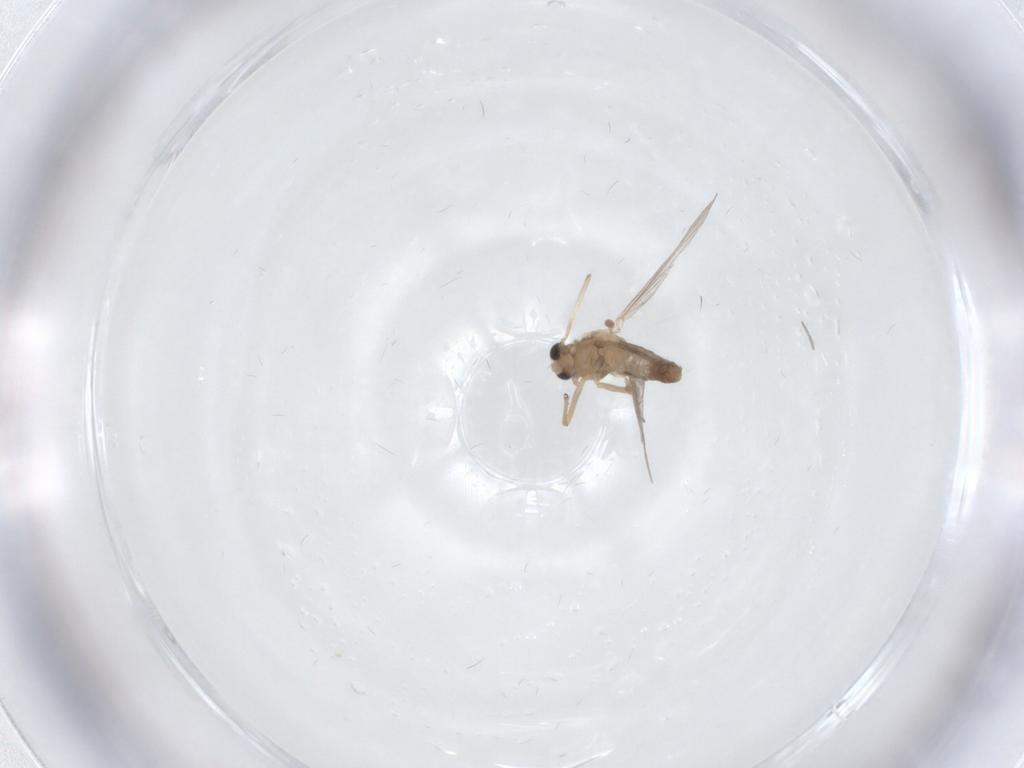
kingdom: Animalia
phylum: Arthropoda
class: Insecta
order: Diptera
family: Chironomidae
